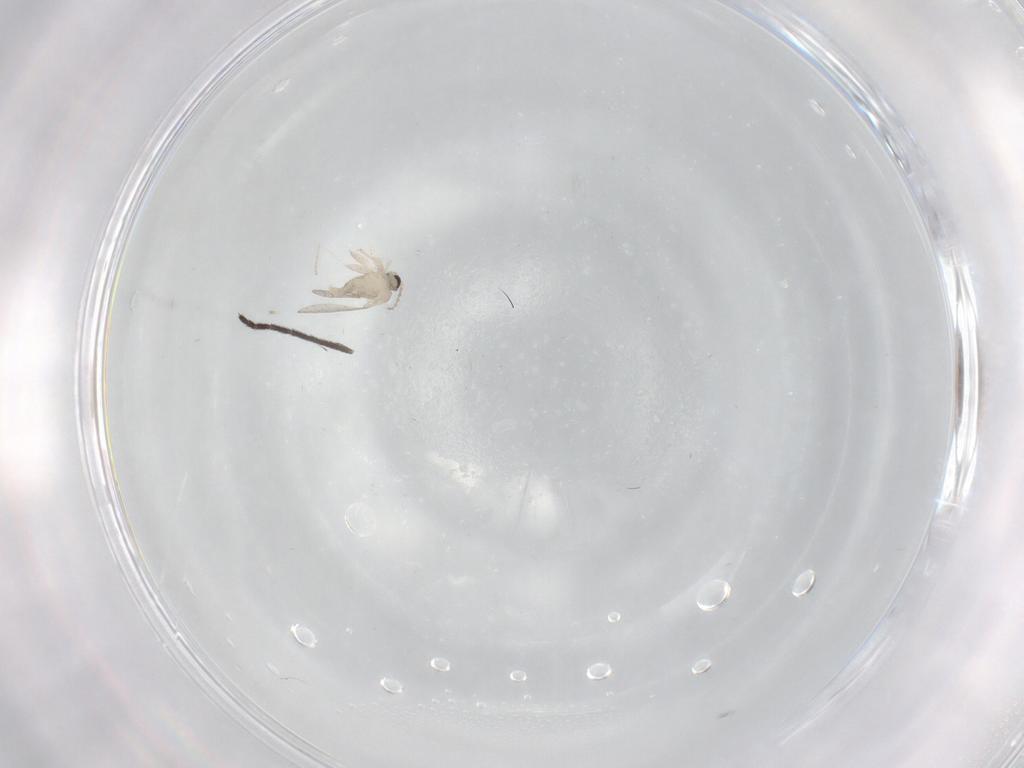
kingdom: Animalia
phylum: Arthropoda
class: Insecta
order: Diptera
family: Cecidomyiidae
